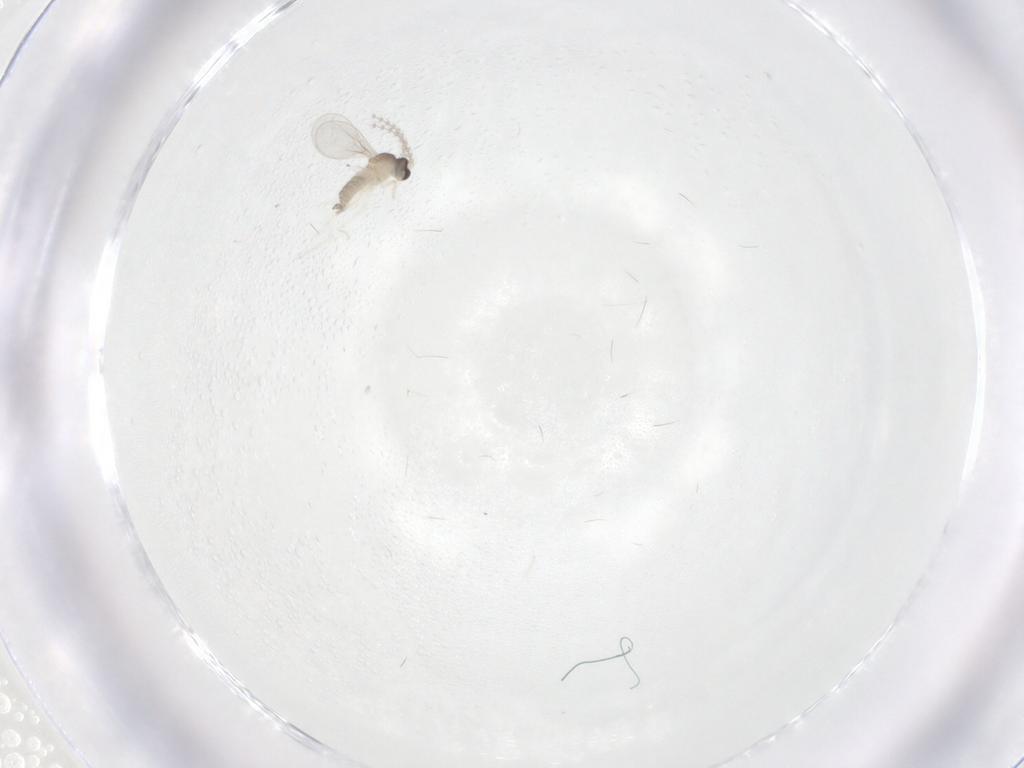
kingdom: Animalia
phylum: Arthropoda
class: Insecta
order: Diptera
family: Cecidomyiidae
